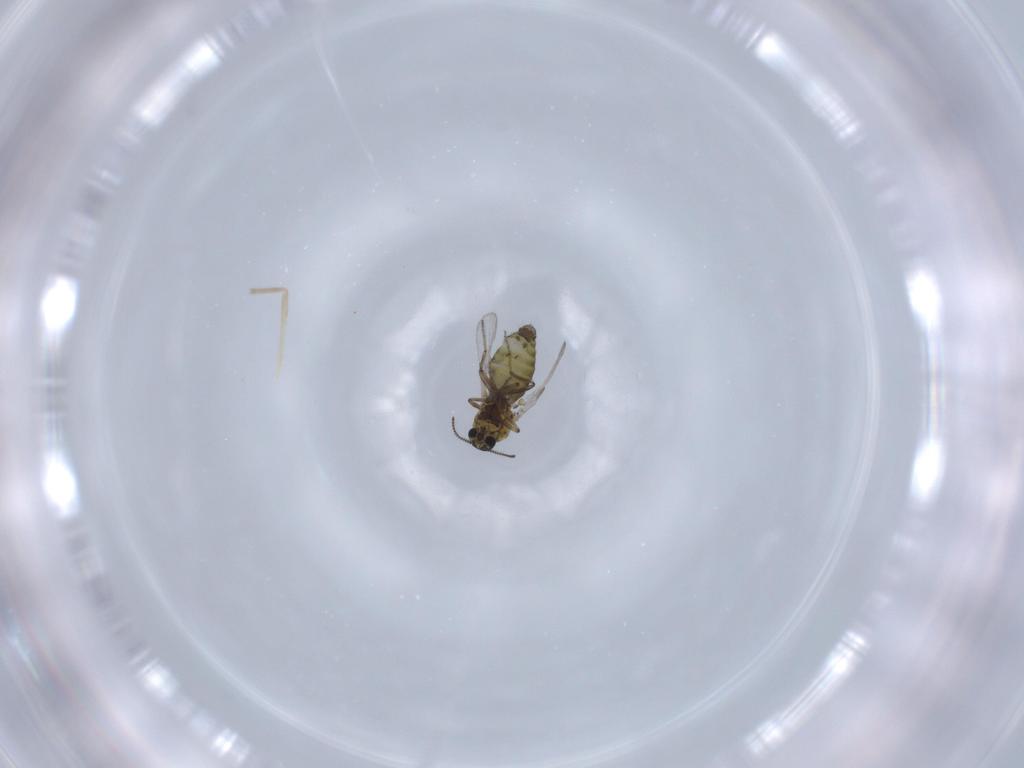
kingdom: Animalia
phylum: Arthropoda
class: Insecta
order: Diptera
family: Ceratopogonidae
